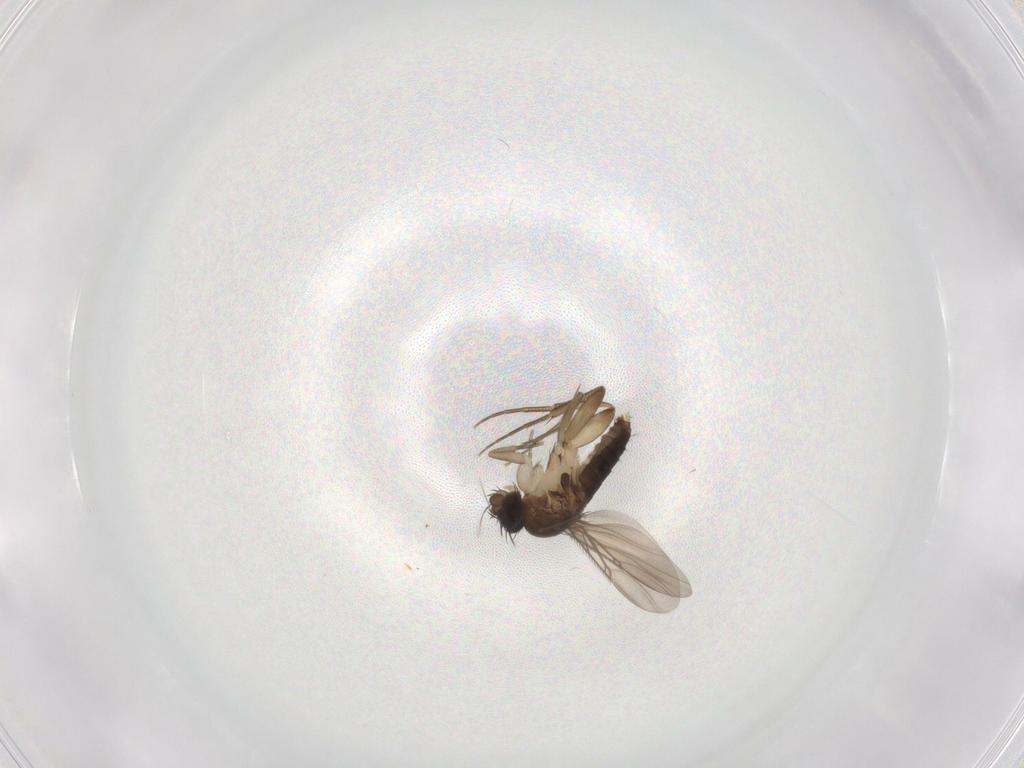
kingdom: Animalia
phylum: Arthropoda
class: Insecta
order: Diptera
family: Phoridae
